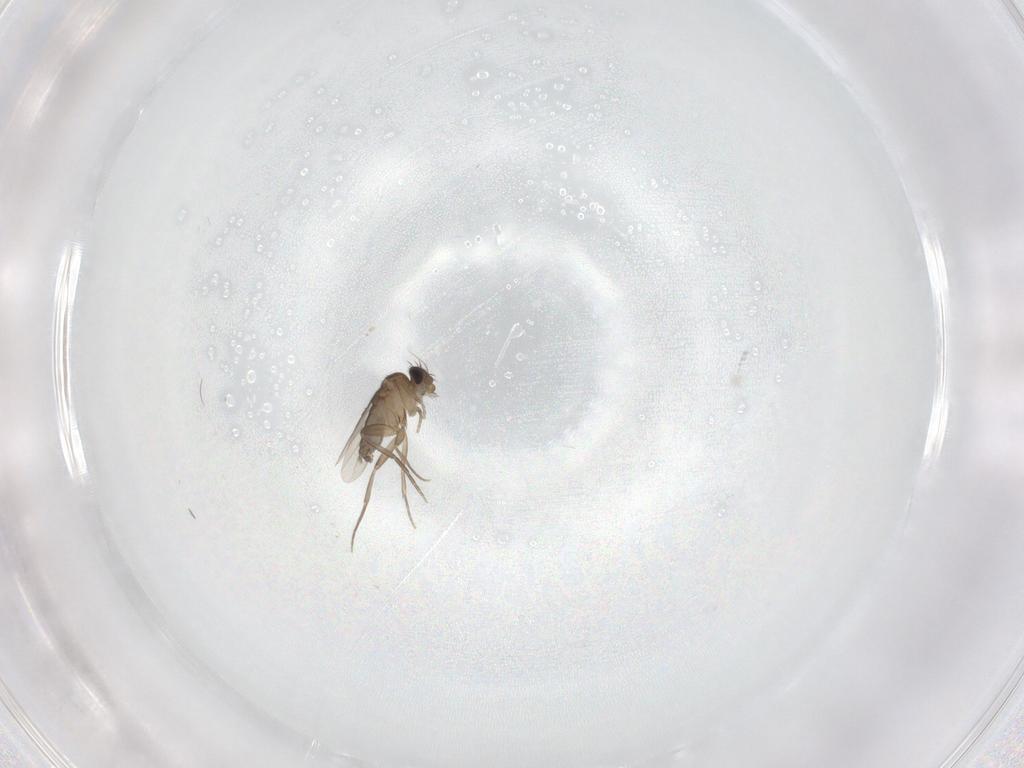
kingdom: Animalia
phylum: Arthropoda
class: Insecta
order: Diptera
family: Phoridae
